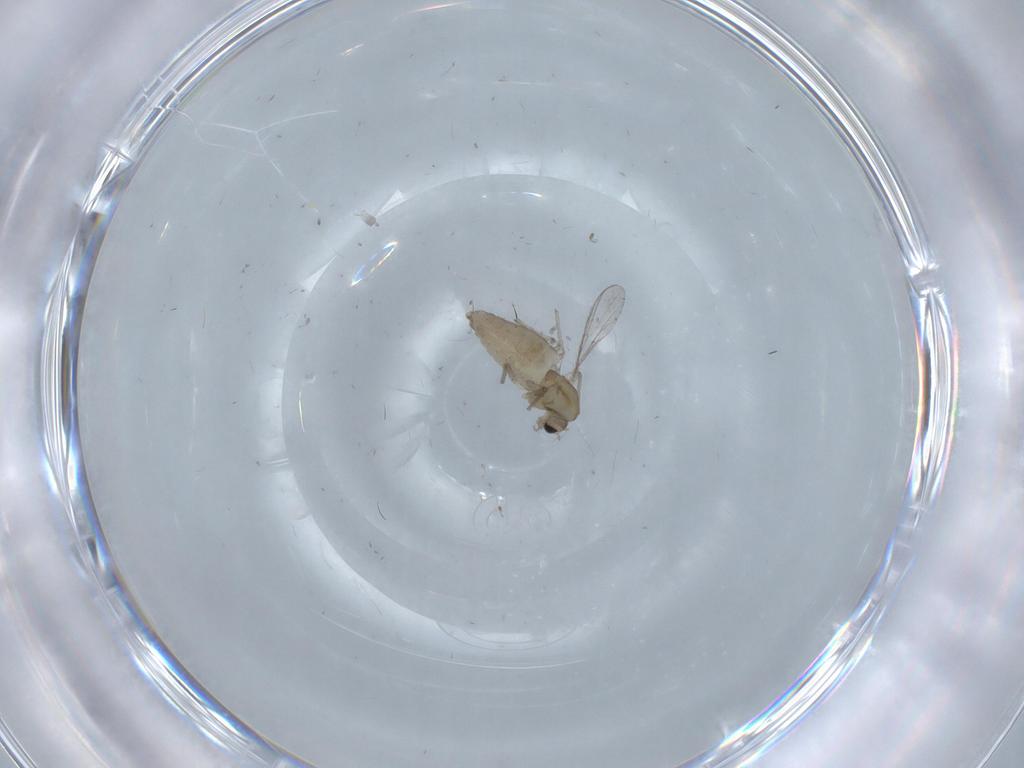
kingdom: Animalia
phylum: Arthropoda
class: Insecta
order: Diptera
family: Chironomidae
